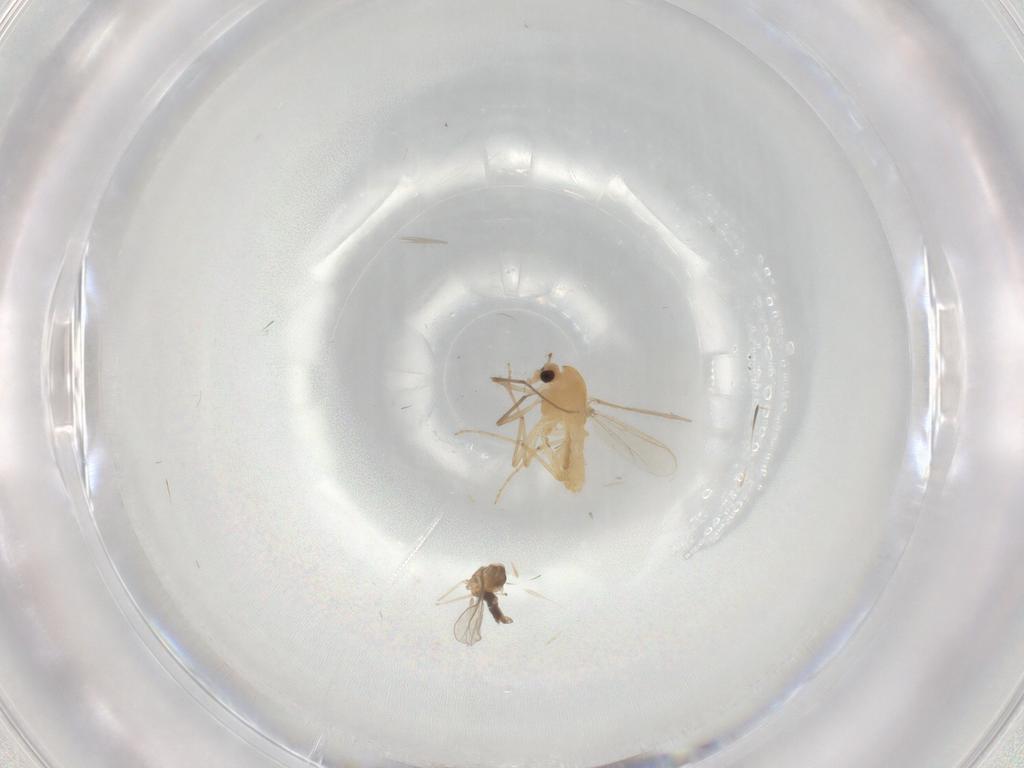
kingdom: Animalia
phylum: Arthropoda
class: Insecta
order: Diptera
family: Chironomidae
